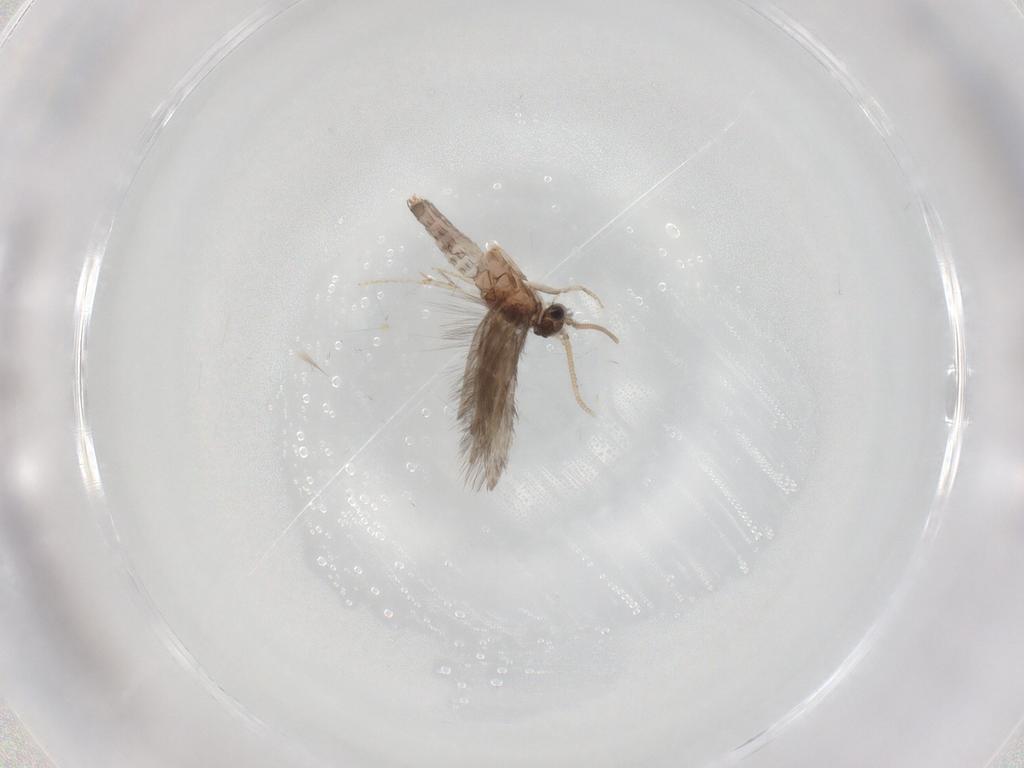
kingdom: Animalia
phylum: Arthropoda
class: Insecta
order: Trichoptera
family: Hydroptilidae
